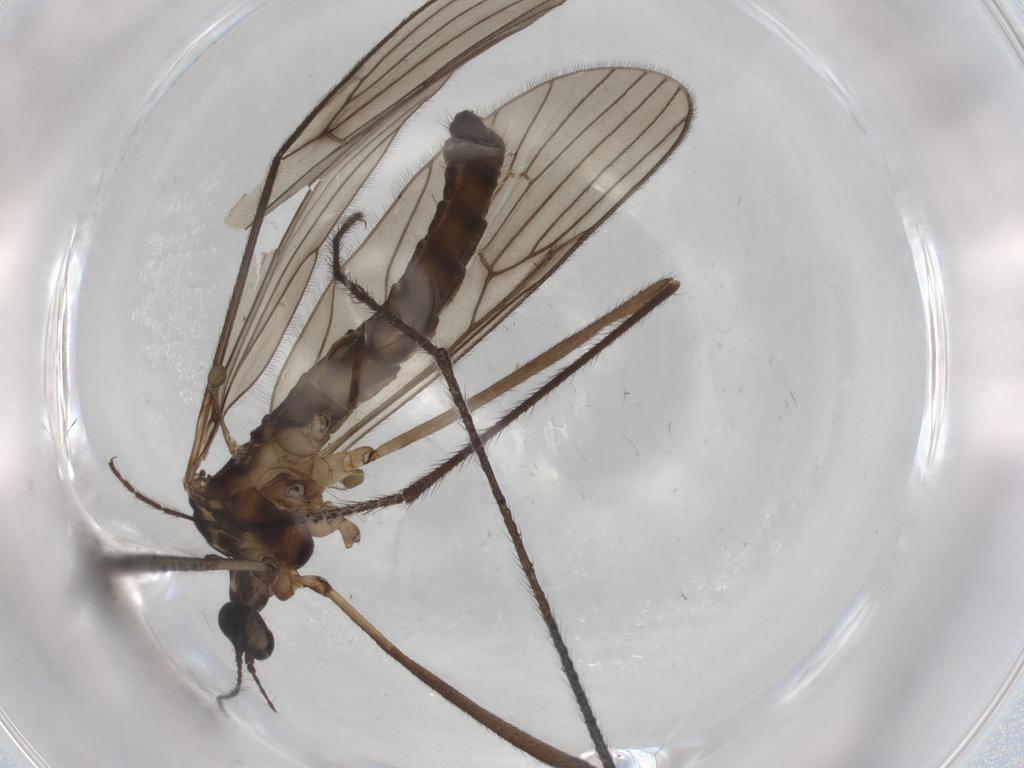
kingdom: Animalia
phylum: Arthropoda
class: Insecta
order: Diptera
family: Limoniidae
